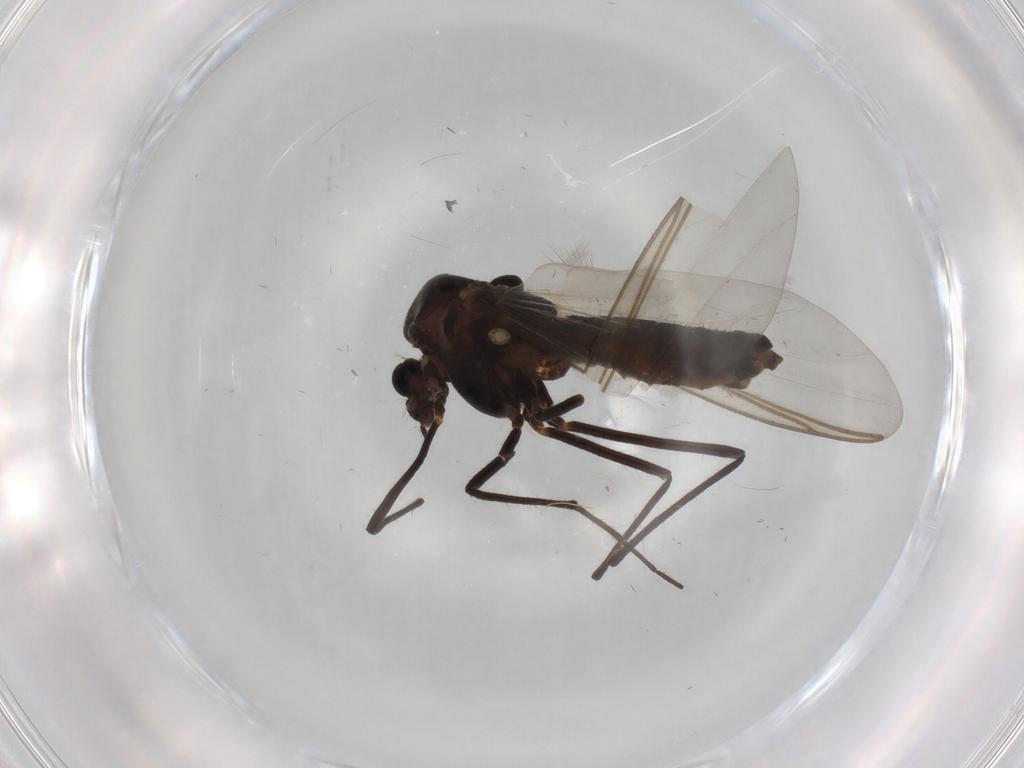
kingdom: Animalia
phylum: Arthropoda
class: Insecta
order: Diptera
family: Chironomidae
